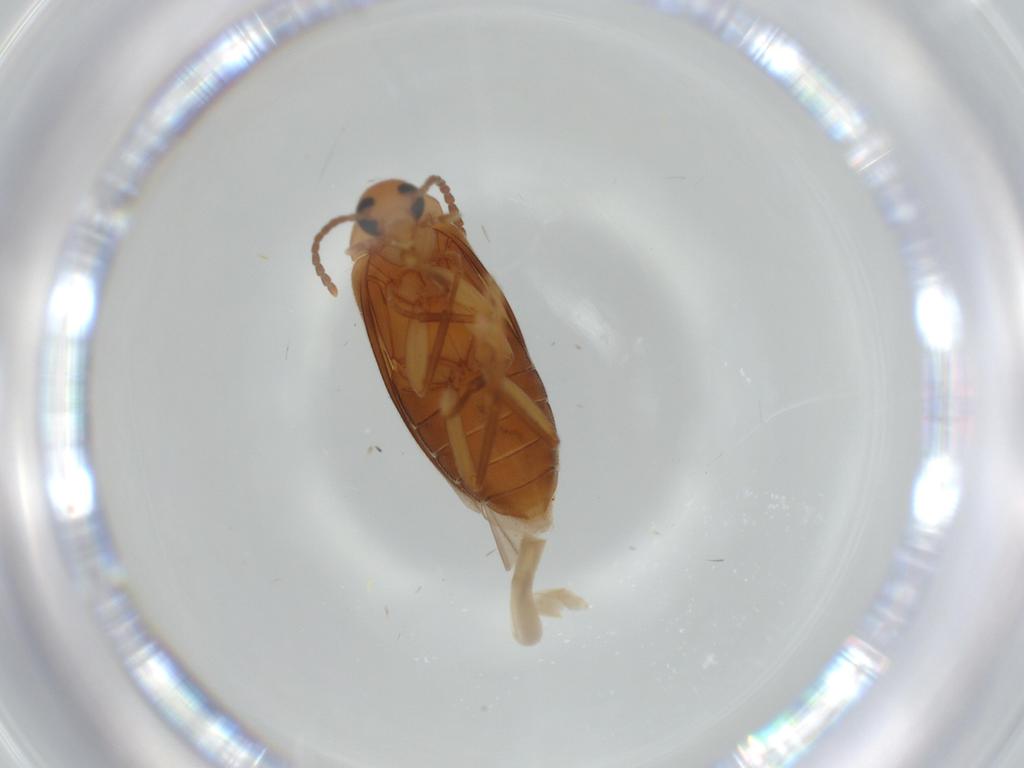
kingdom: Animalia
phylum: Arthropoda
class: Insecta
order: Coleoptera
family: Scraptiidae
